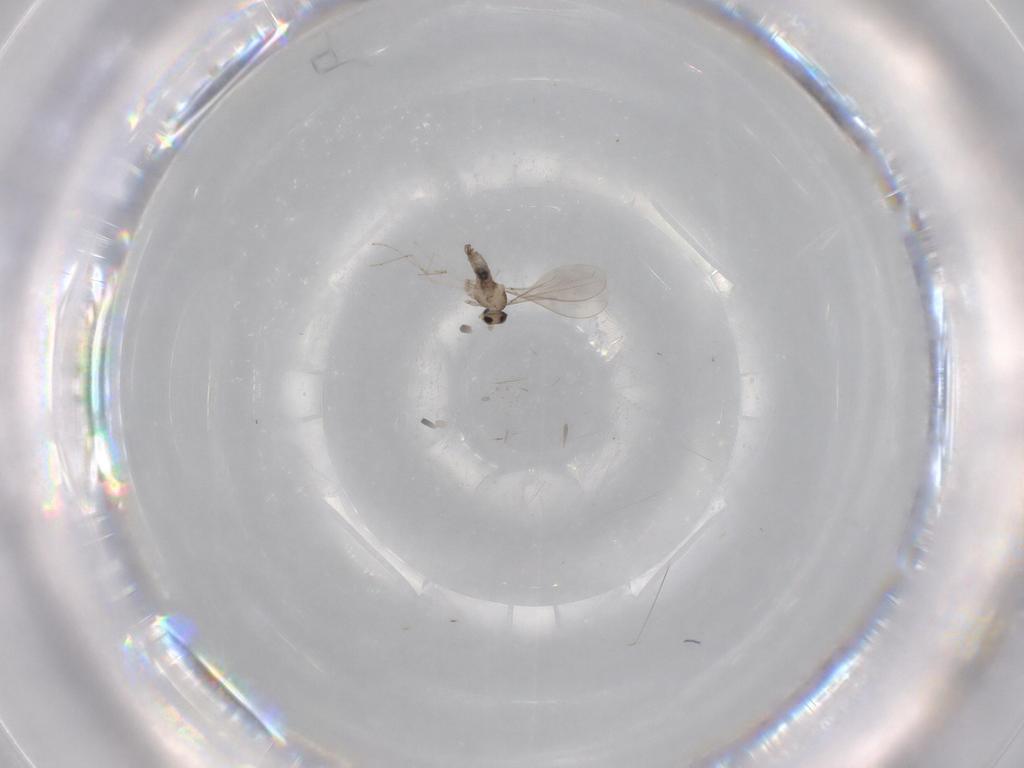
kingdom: Animalia
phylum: Arthropoda
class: Insecta
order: Diptera
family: Chironomidae
